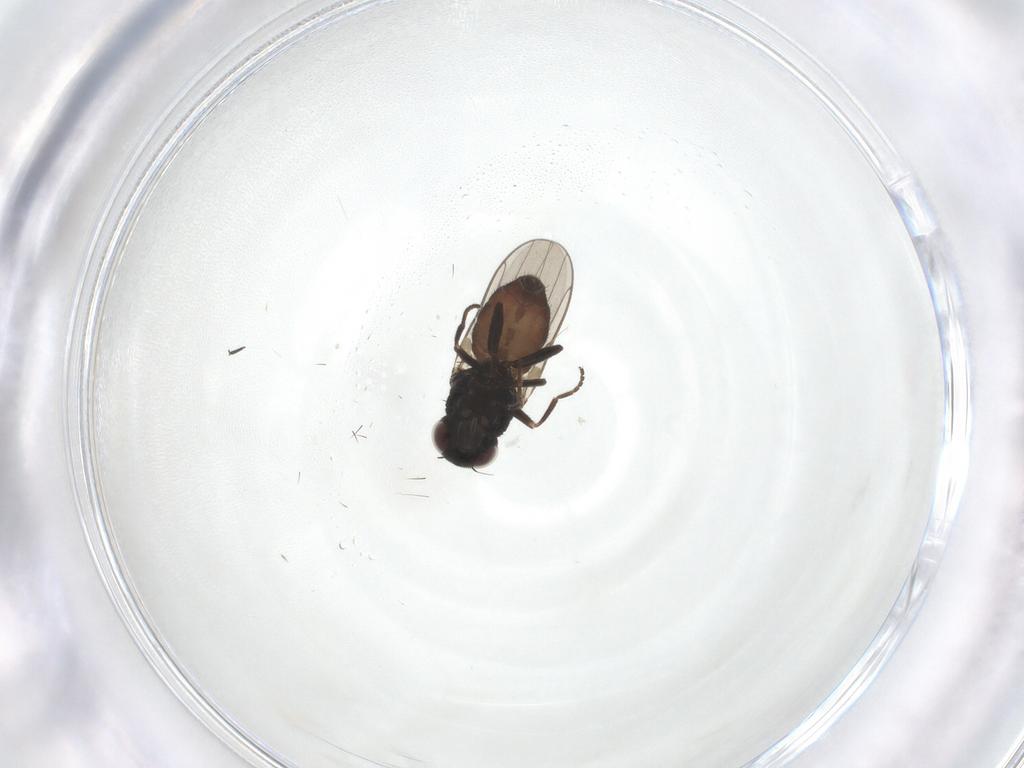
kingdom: Animalia
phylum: Arthropoda
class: Insecta
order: Diptera
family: Chloropidae
